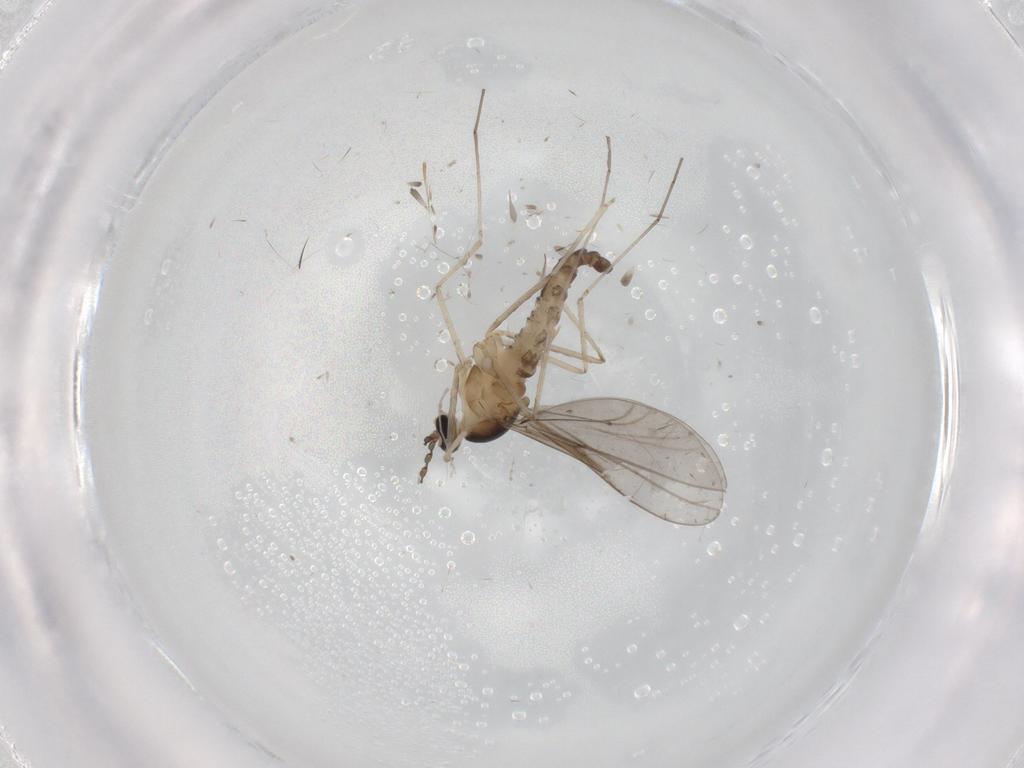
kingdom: Animalia
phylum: Arthropoda
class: Insecta
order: Diptera
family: Cecidomyiidae
